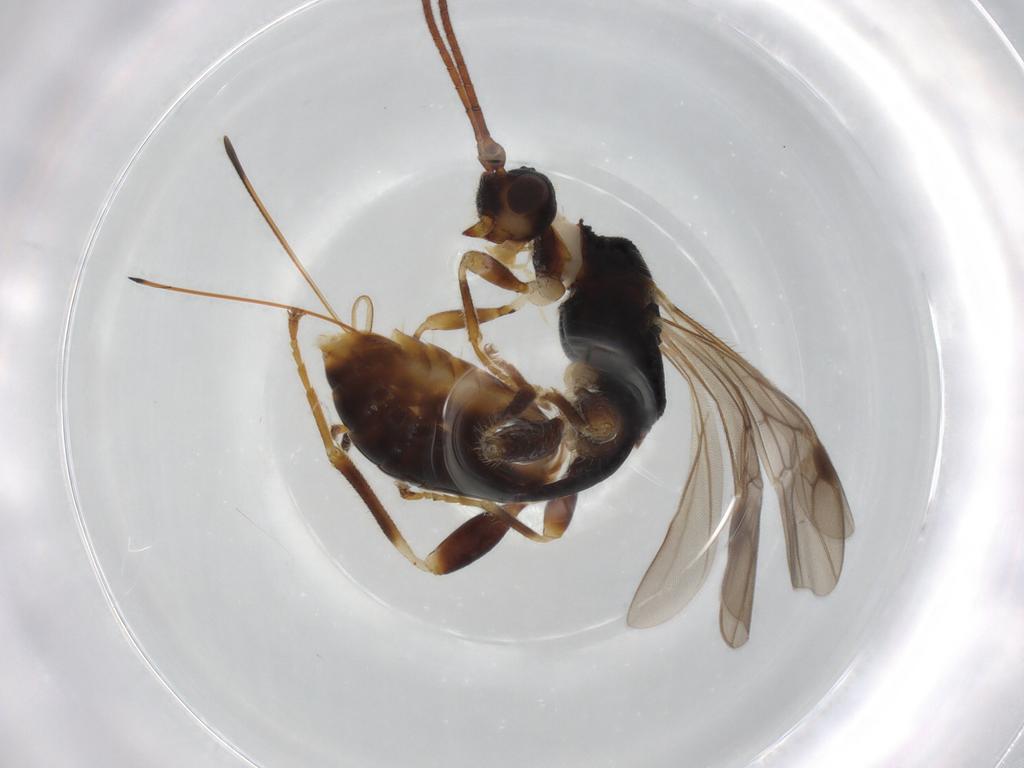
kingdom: Animalia
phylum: Arthropoda
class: Insecta
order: Hymenoptera
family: Braconidae
